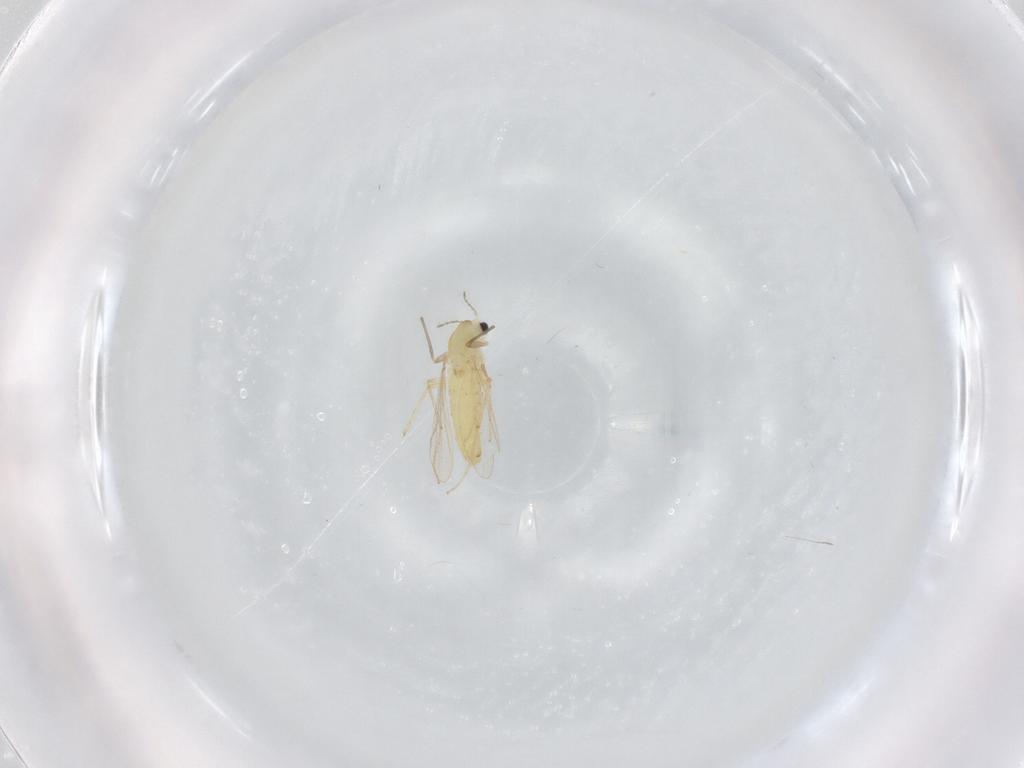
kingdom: Animalia
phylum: Arthropoda
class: Insecta
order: Diptera
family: Chironomidae
